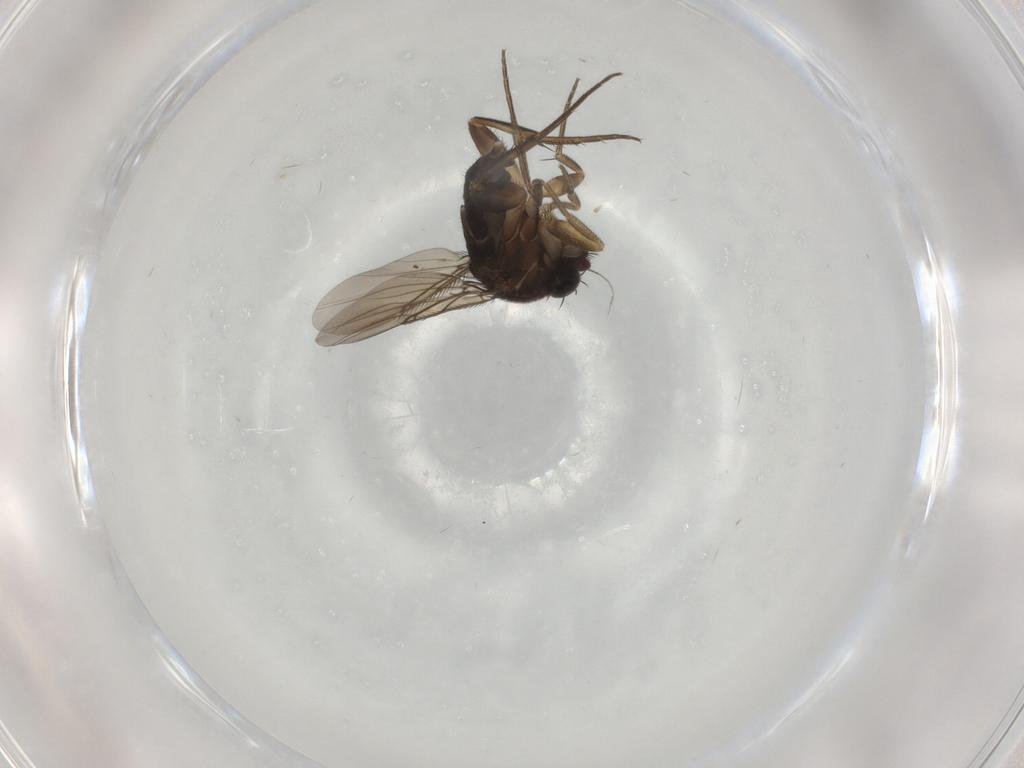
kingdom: Animalia
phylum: Arthropoda
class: Insecta
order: Diptera
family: Phoridae
